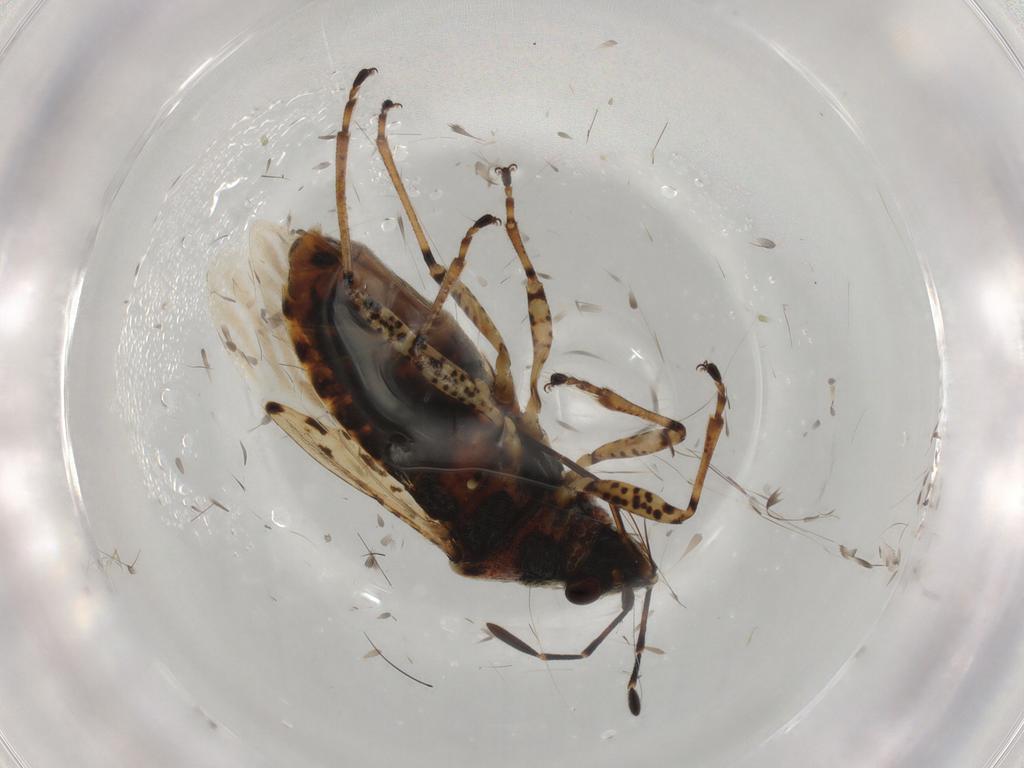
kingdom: Animalia
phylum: Arthropoda
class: Insecta
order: Hemiptera
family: Lygaeidae
